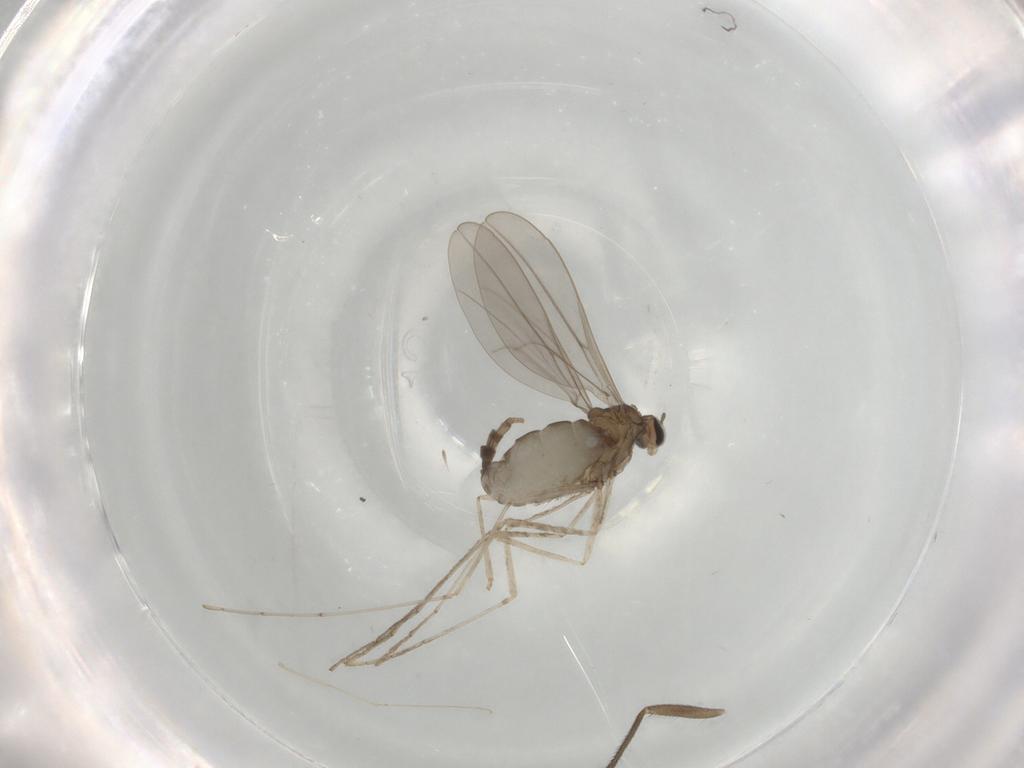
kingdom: Animalia
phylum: Arthropoda
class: Insecta
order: Diptera
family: Cecidomyiidae
